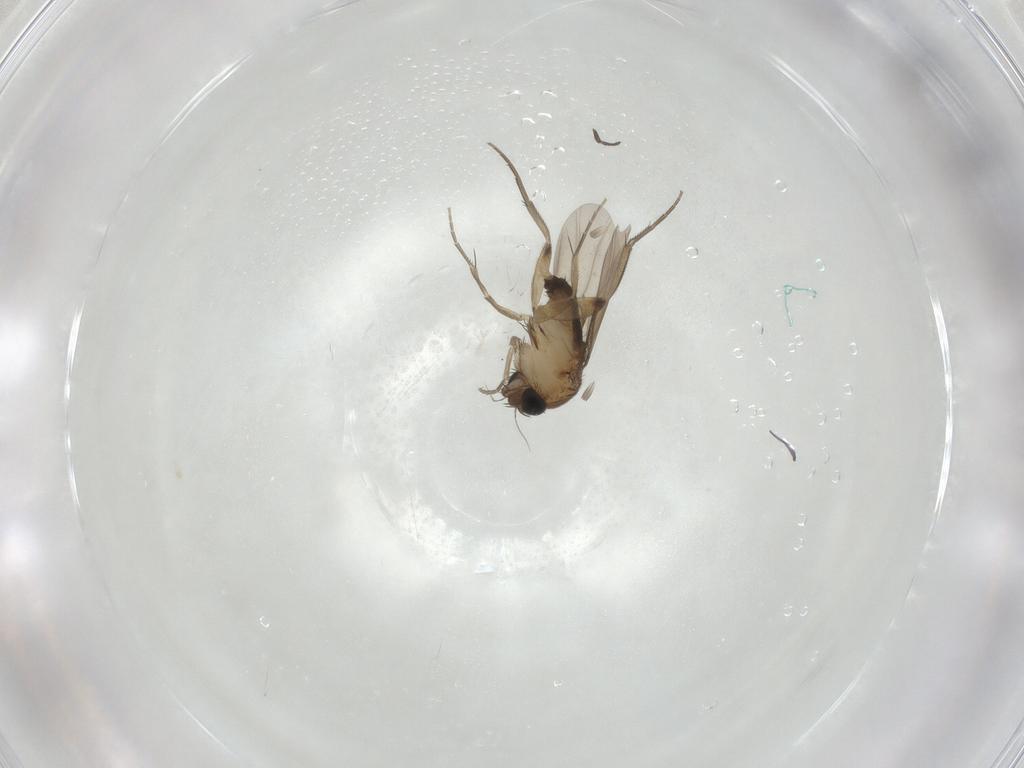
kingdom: Animalia
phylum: Arthropoda
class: Insecta
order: Diptera
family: Phoridae
